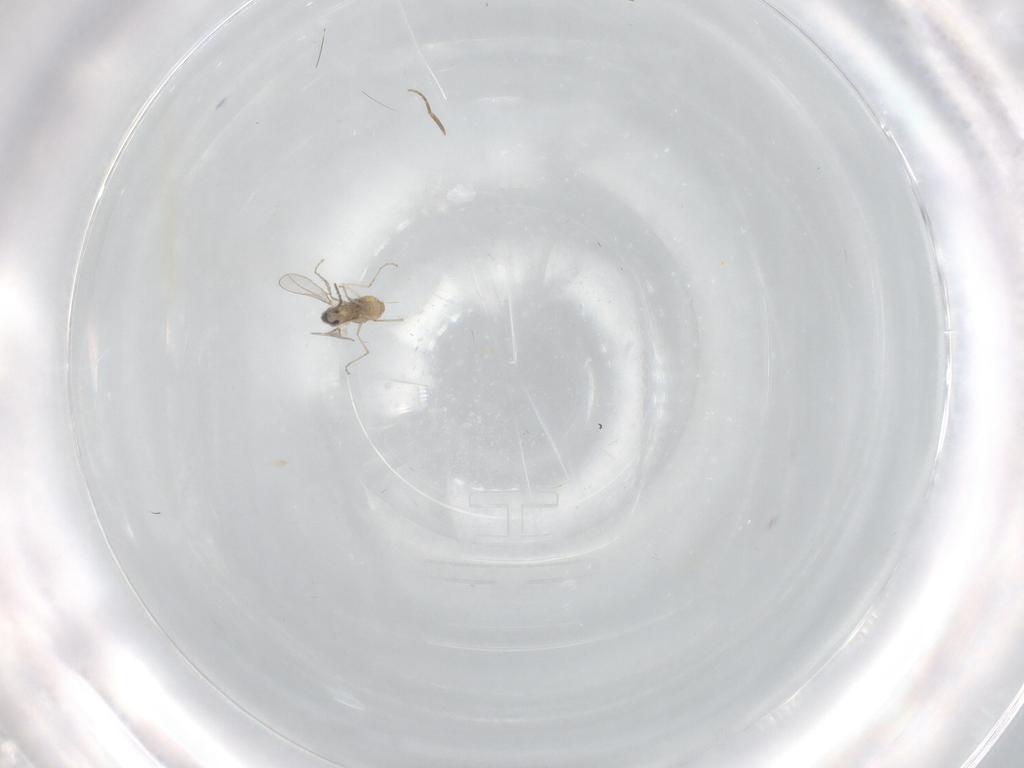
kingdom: Animalia
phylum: Arthropoda
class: Insecta
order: Diptera
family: Cecidomyiidae
